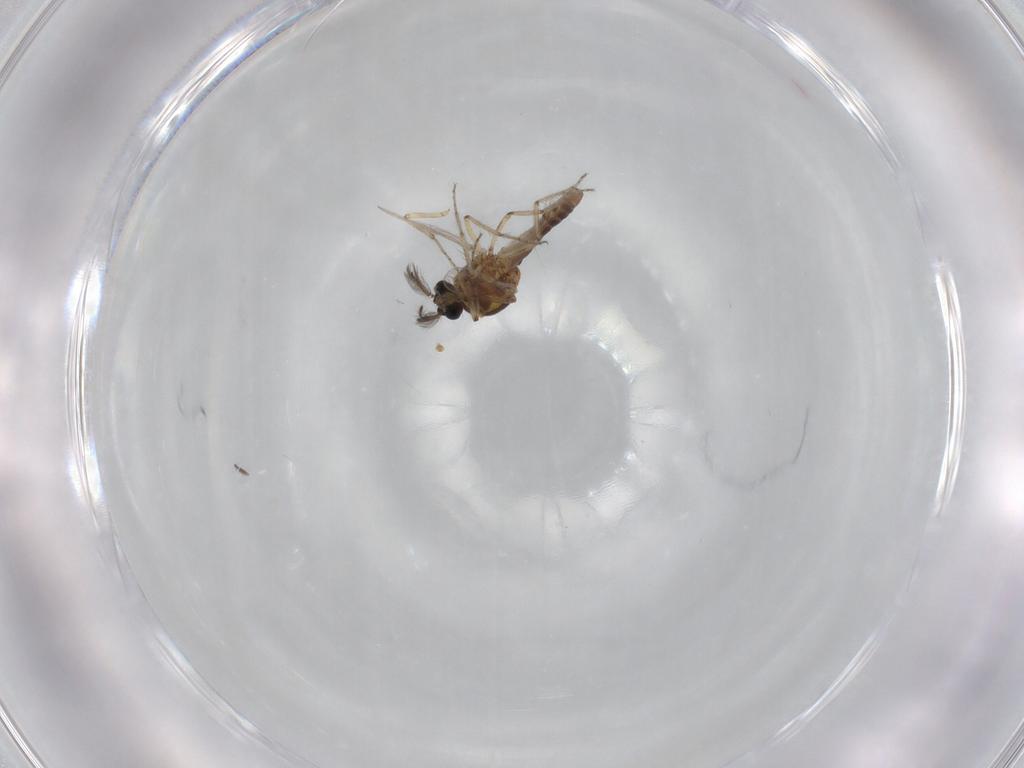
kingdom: Animalia
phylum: Arthropoda
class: Insecta
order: Diptera
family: Ceratopogonidae
